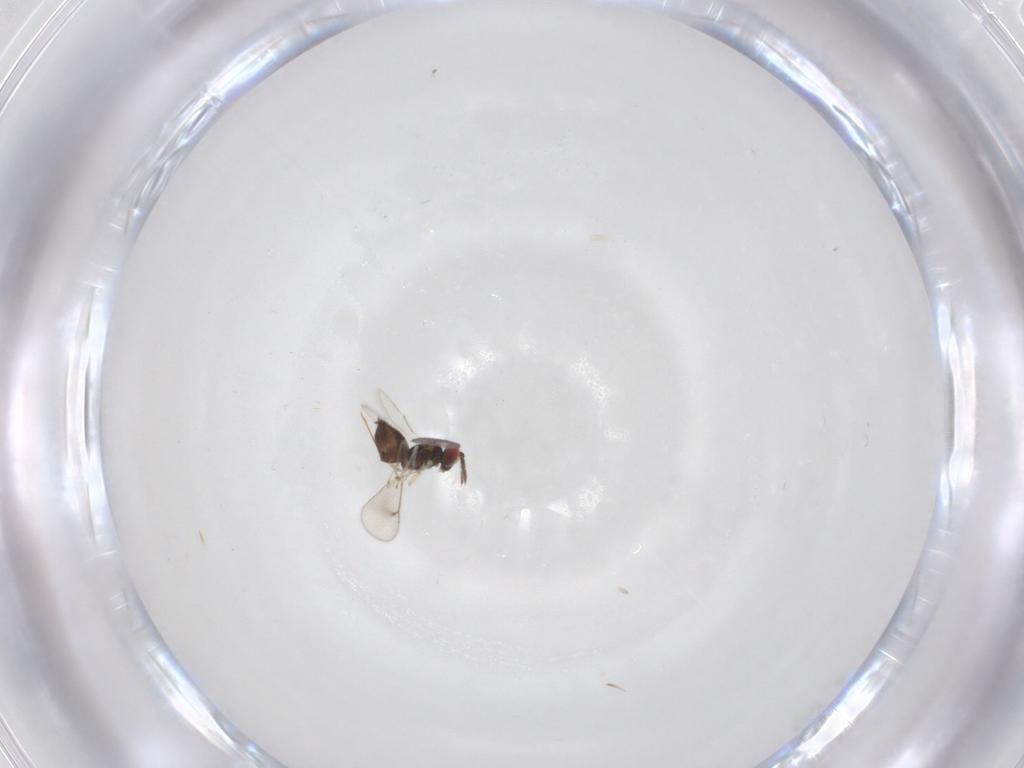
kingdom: Animalia
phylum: Arthropoda
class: Insecta
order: Hymenoptera
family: Eulophidae
